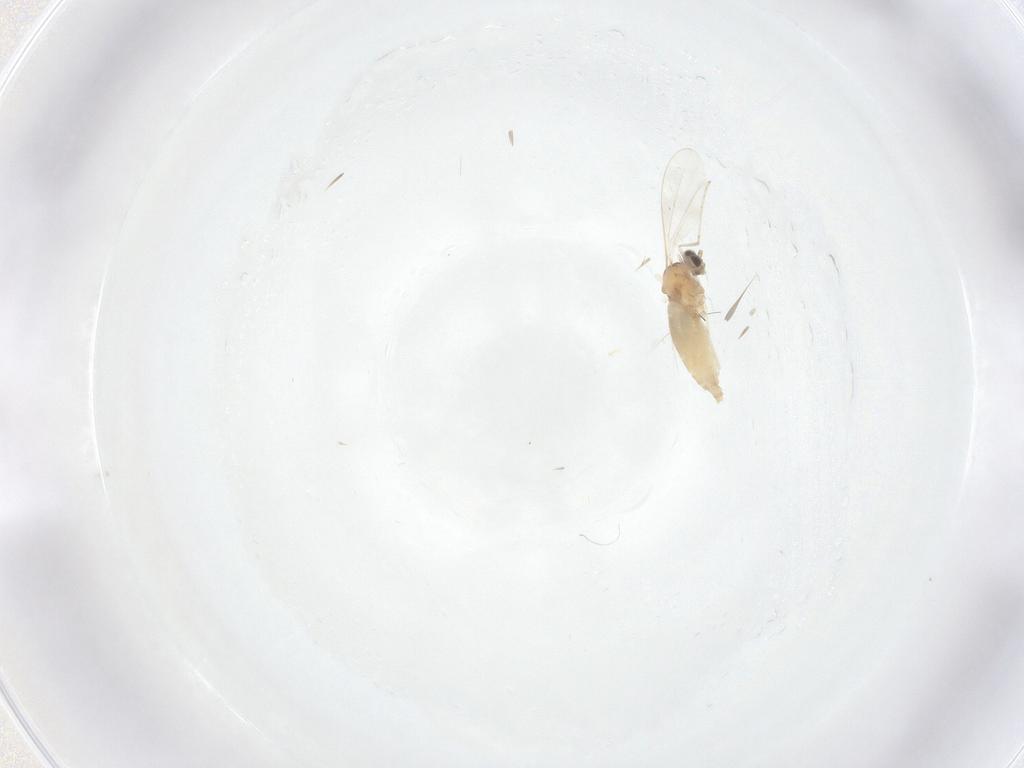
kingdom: Animalia
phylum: Arthropoda
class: Insecta
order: Diptera
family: Cecidomyiidae
